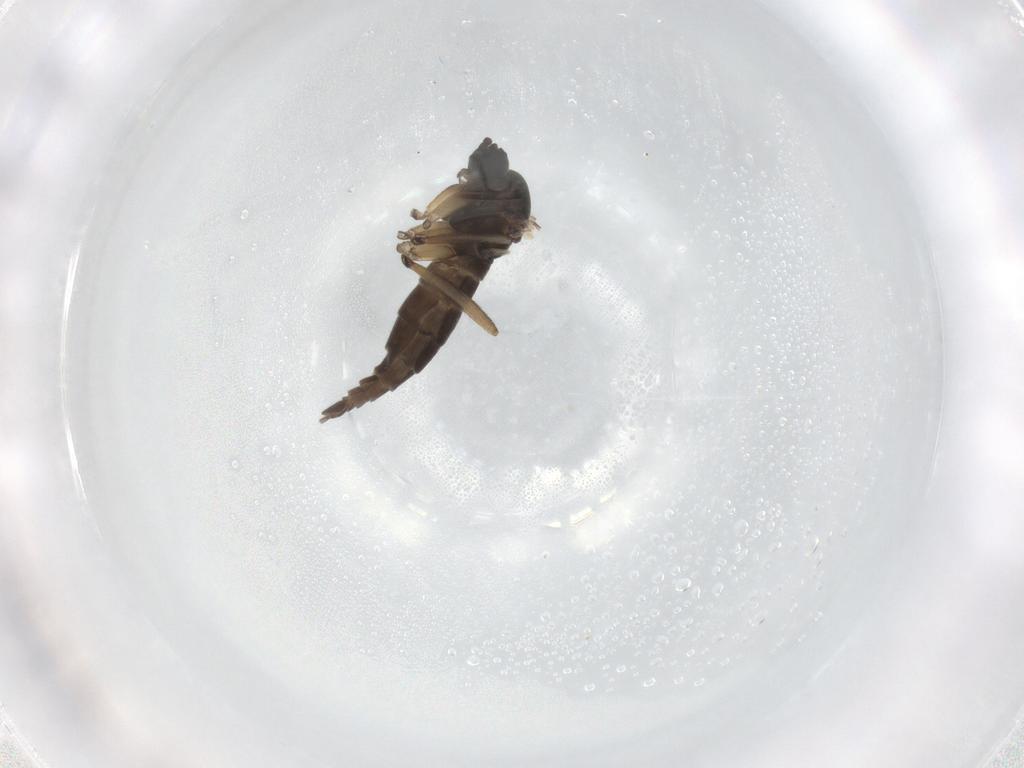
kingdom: Animalia
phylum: Arthropoda
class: Insecta
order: Diptera
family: Sciaridae
